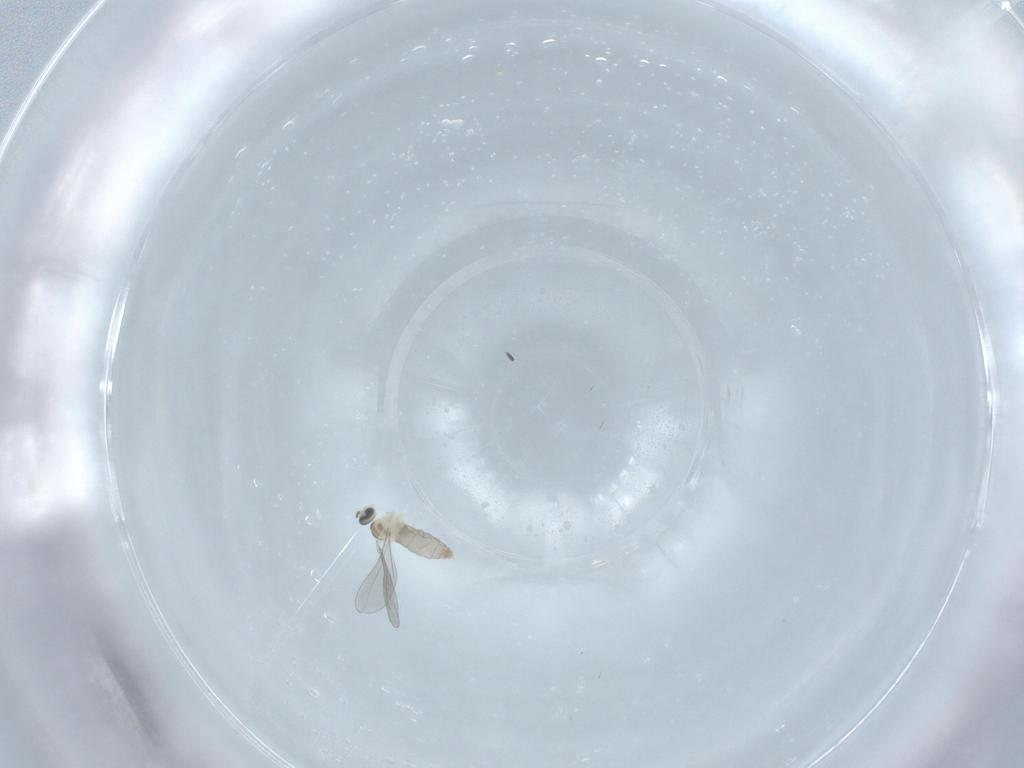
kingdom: Animalia
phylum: Arthropoda
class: Insecta
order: Diptera
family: Cecidomyiidae
